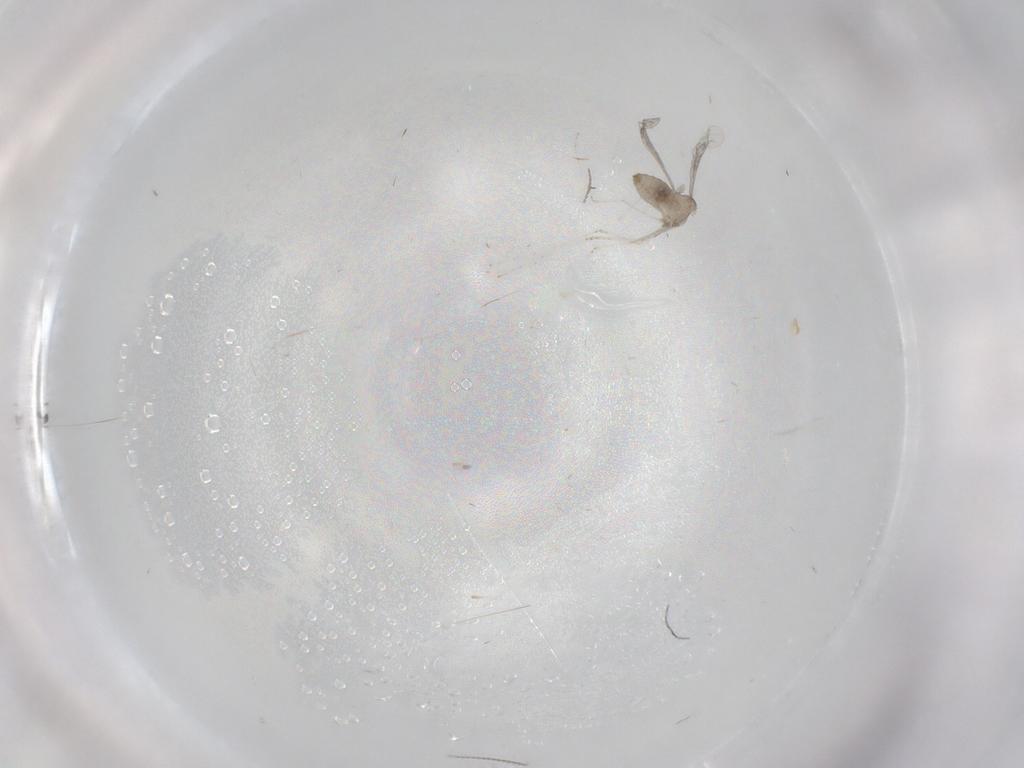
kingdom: Animalia
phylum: Arthropoda
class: Insecta
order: Diptera
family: Cecidomyiidae
